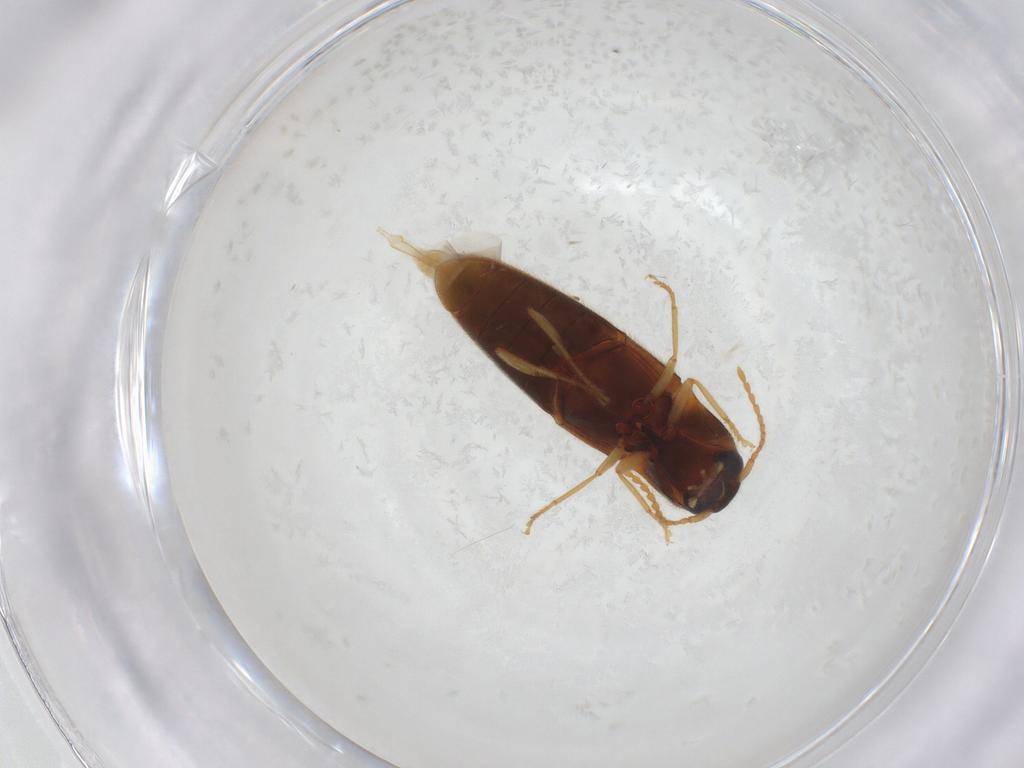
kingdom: Animalia
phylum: Arthropoda
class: Insecta
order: Coleoptera
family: Elateridae
